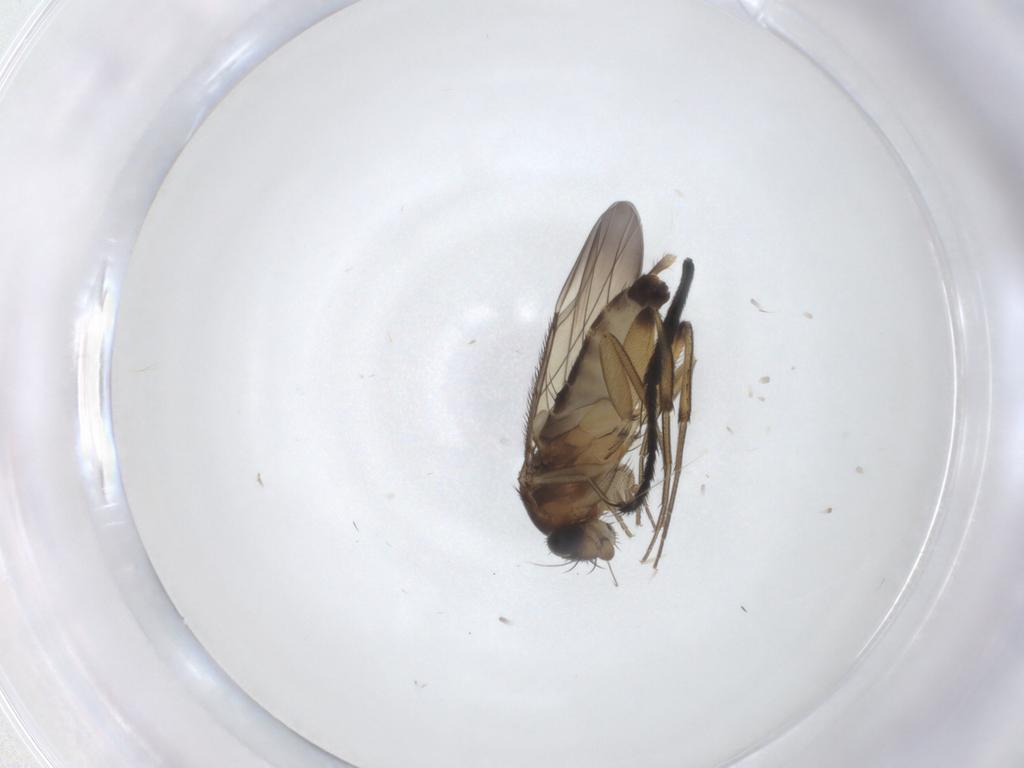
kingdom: Animalia
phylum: Arthropoda
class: Insecta
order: Diptera
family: Phoridae
